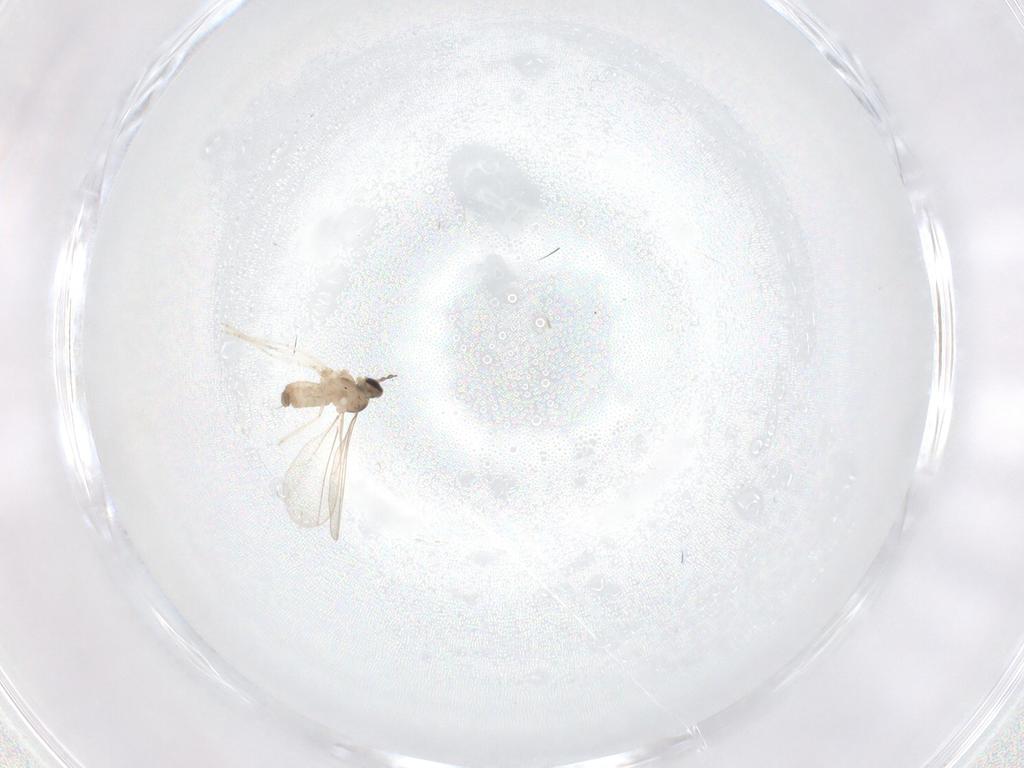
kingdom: Animalia
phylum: Arthropoda
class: Insecta
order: Diptera
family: Cecidomyiidae
